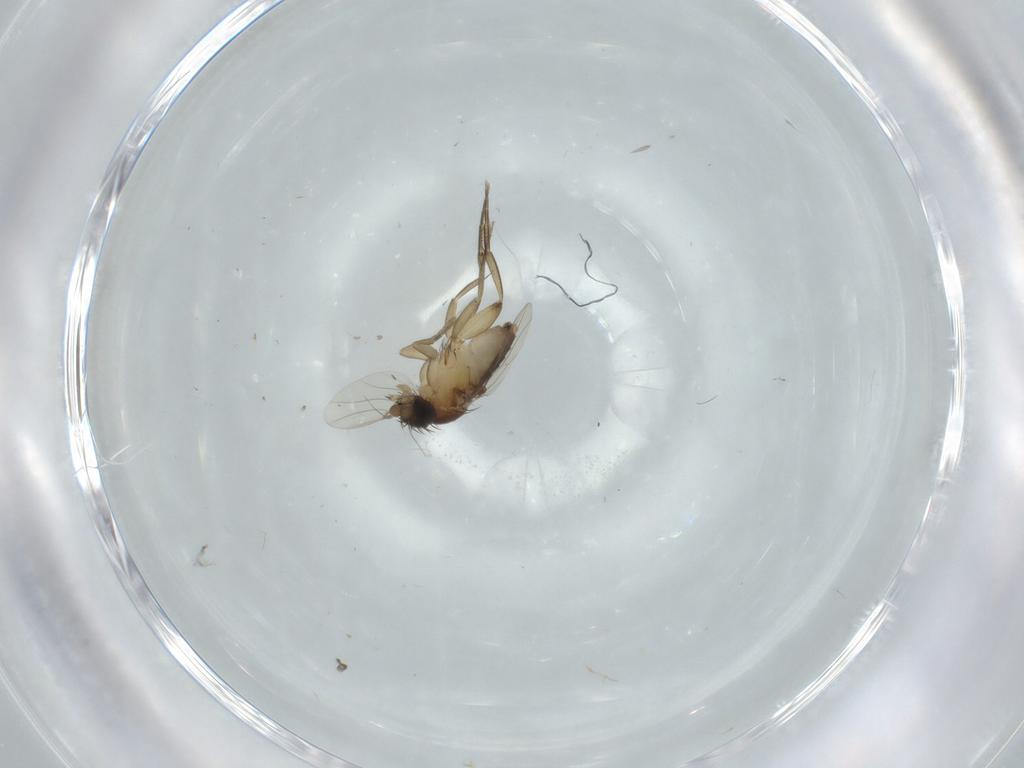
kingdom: Animalia
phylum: Arthropoda
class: Insecta
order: Diptera
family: Phoridae
